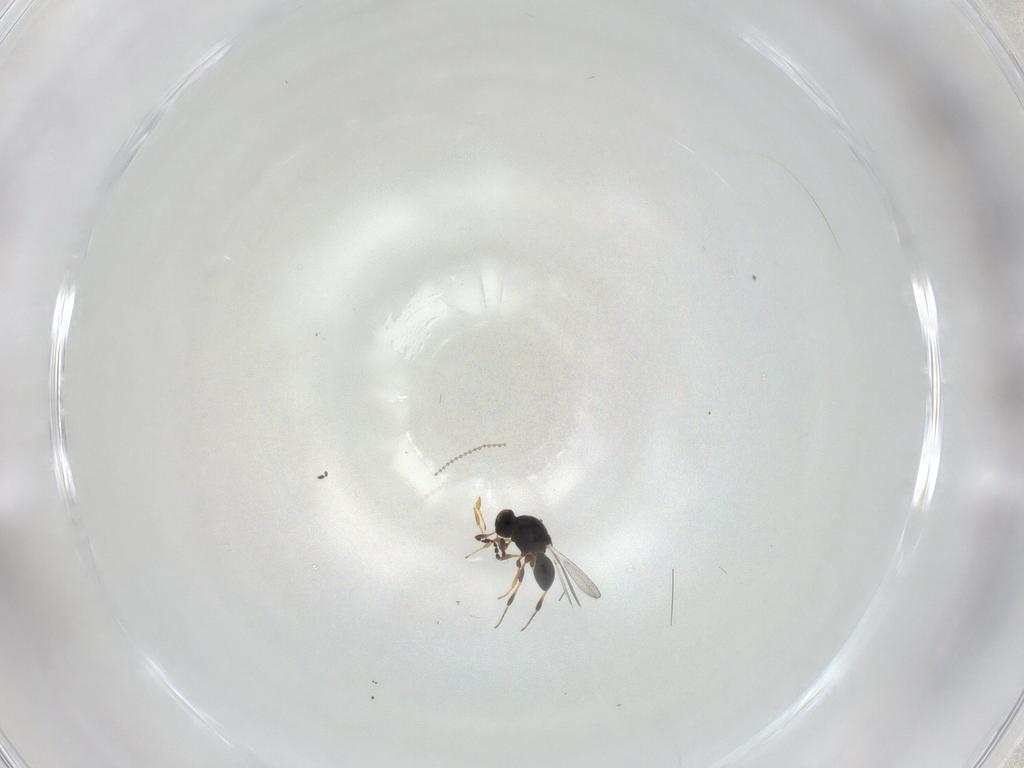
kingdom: Animalia
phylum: Arthropoda
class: Insecta
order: Hymenoptera
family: Platygastridae
